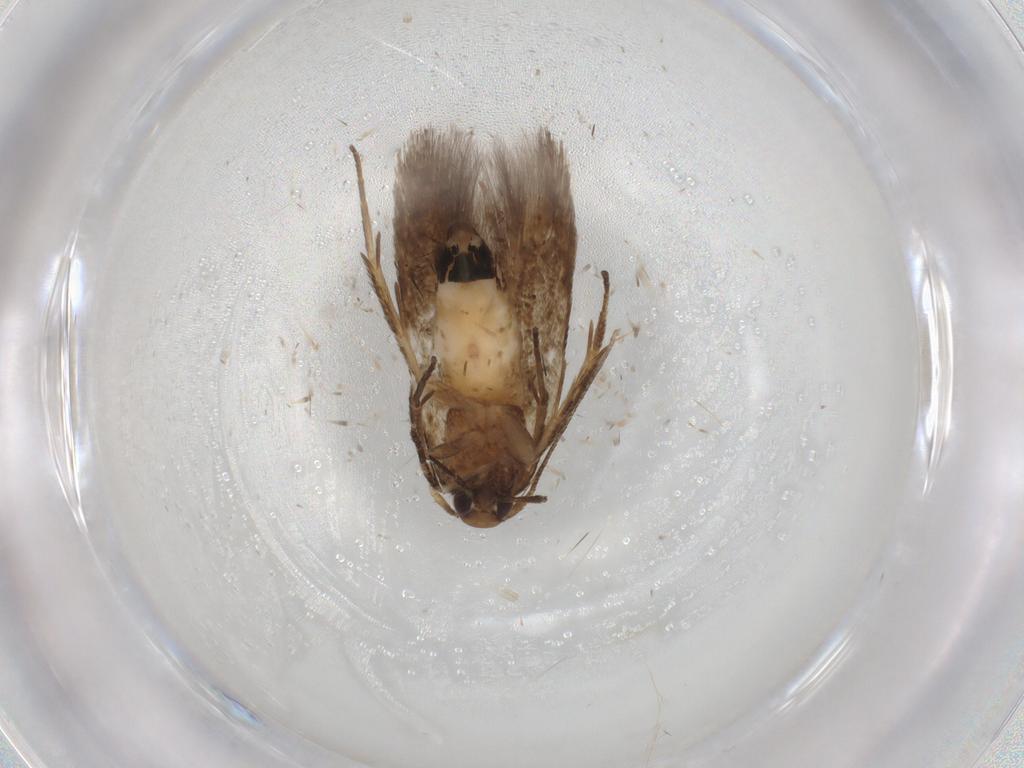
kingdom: Animalia
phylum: Arthropoda
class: Insecta
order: Lepidoptera
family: Cosmopterigidae
